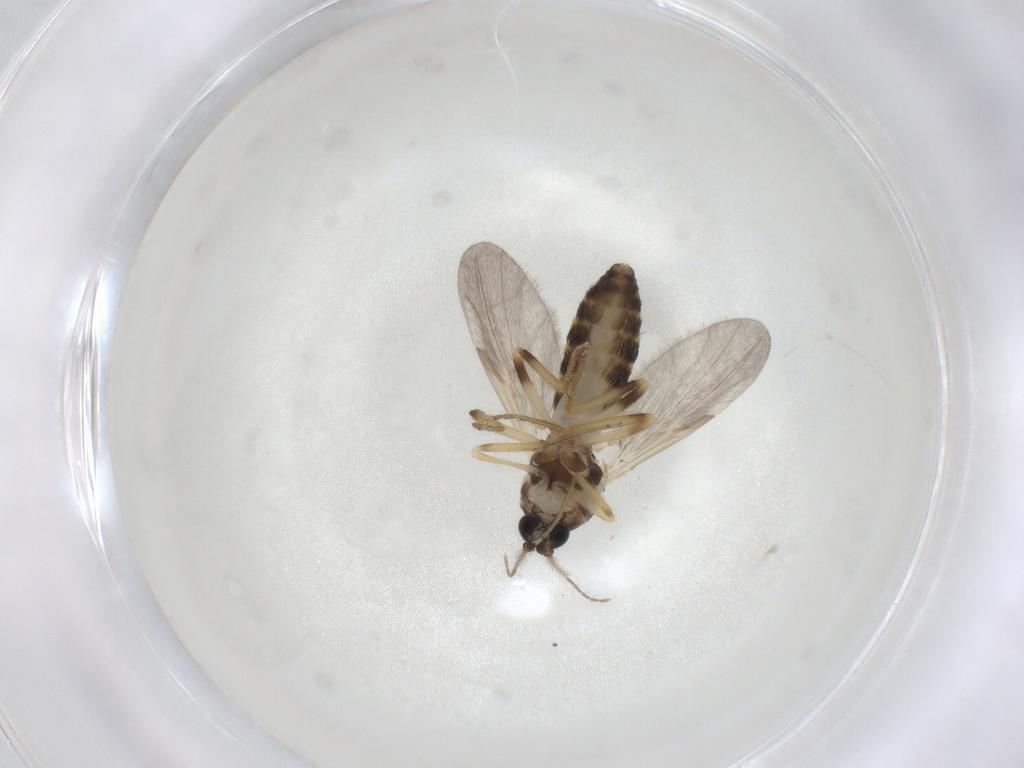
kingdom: Animalia
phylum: Arthropoda
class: Insecta
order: Diptera
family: Ceratopogonidae
